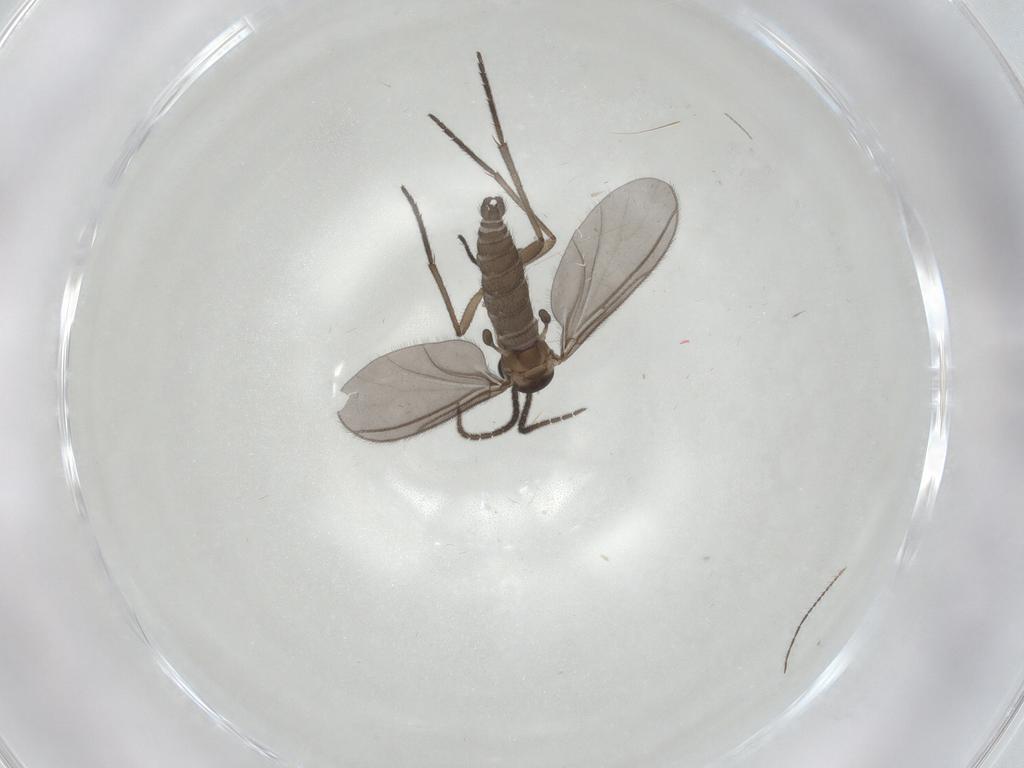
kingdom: Animalia
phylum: Arthropoda
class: Insecta
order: Diptera
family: Sciaridae
